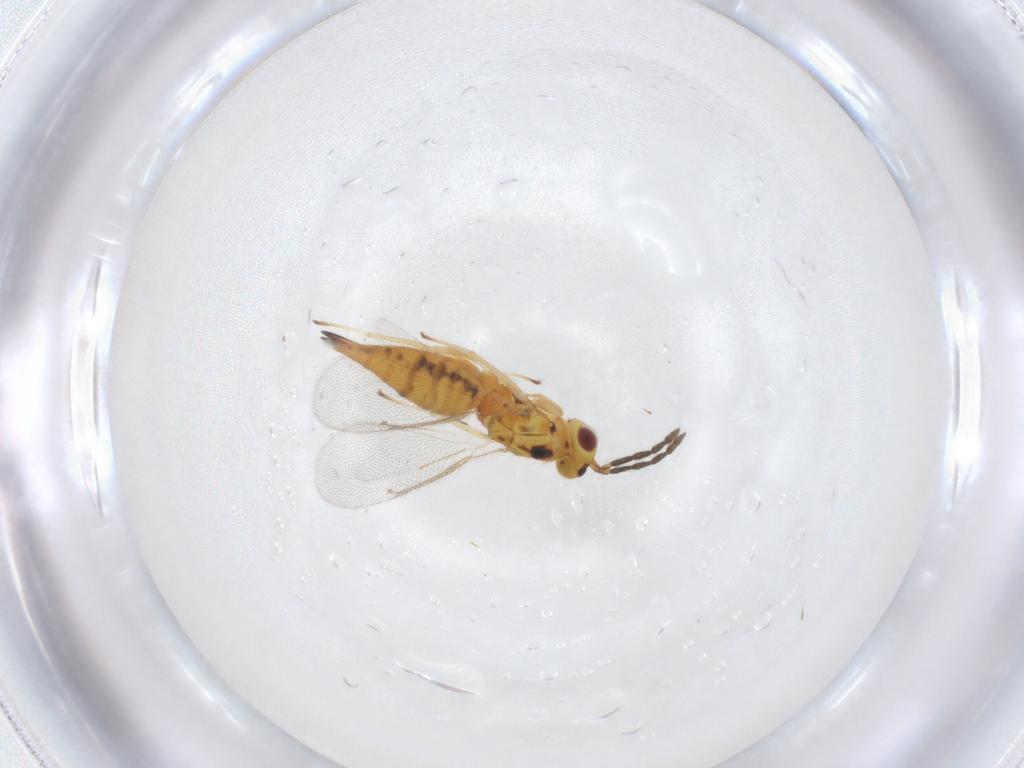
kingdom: Animalia
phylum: Arthropoda
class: Insecta
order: Hymenoptera
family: Eulophidae
